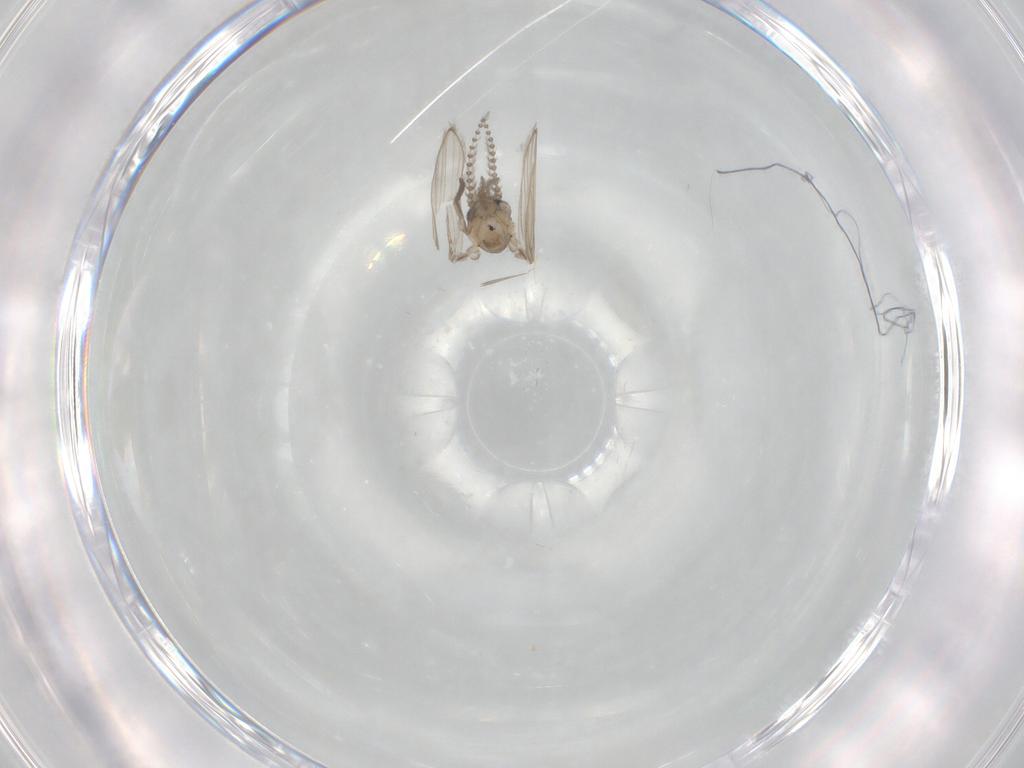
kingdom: Animalia
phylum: Arthropoda
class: Insecta
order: Diptera
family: Psychodidae
